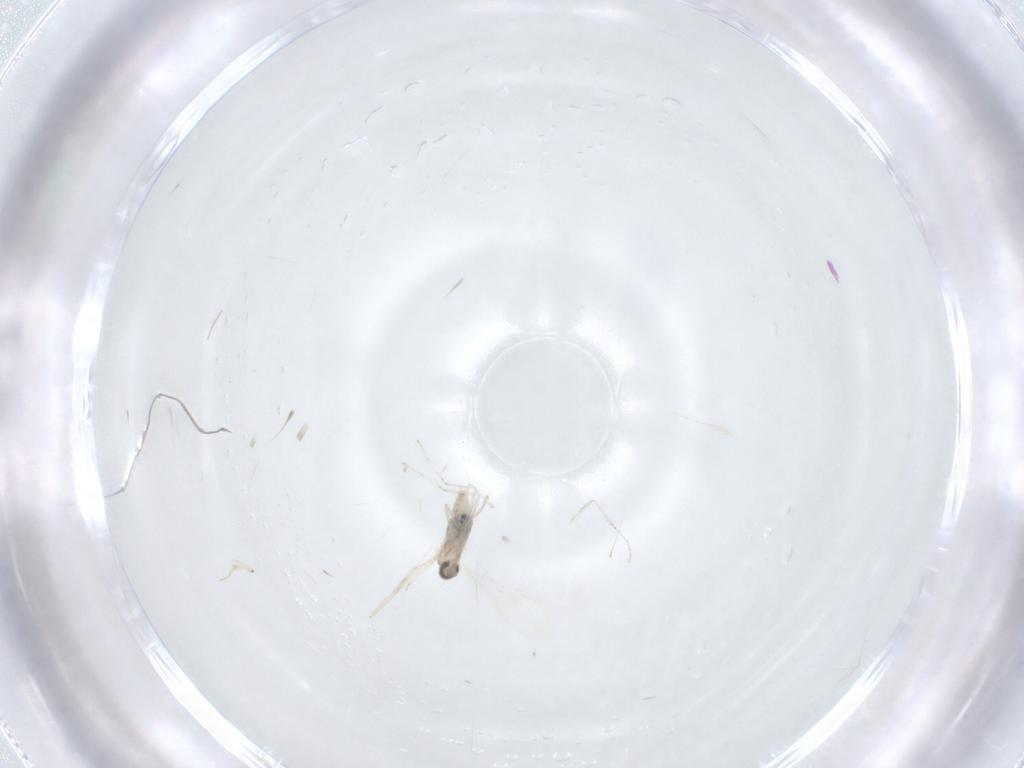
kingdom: Animalia
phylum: Arthropoda
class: Insecta
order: Diptera
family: Cecidomyiidae
